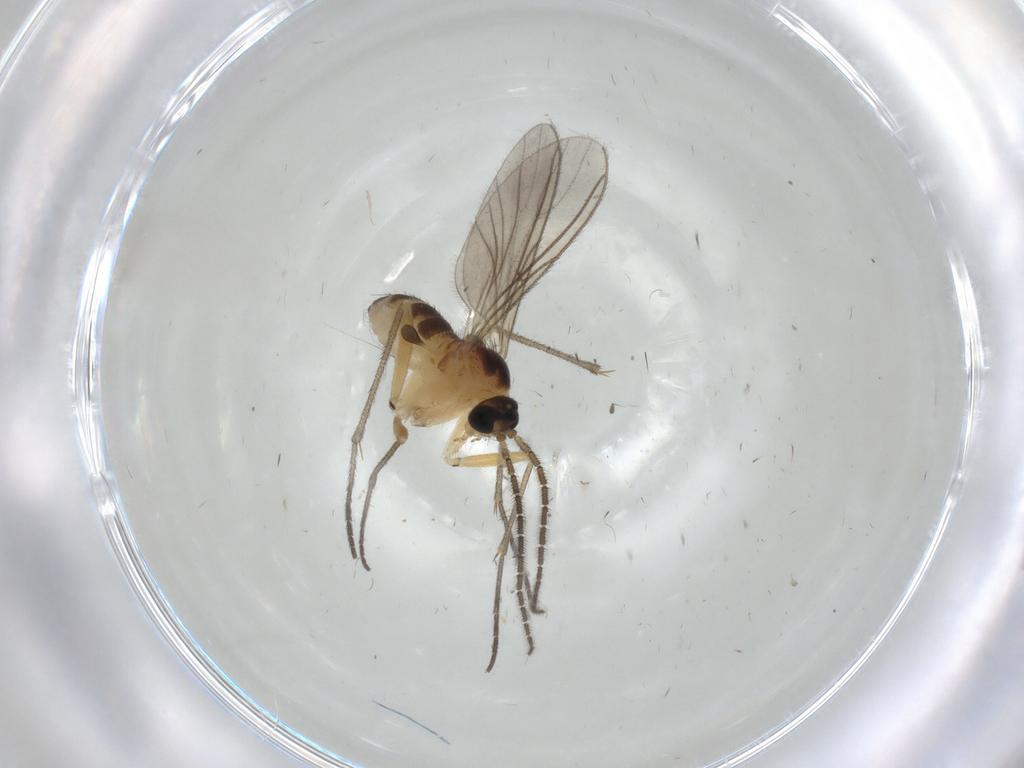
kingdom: Animalia
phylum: Arthropoda
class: Insecta
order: Diptera
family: Sciaridae
